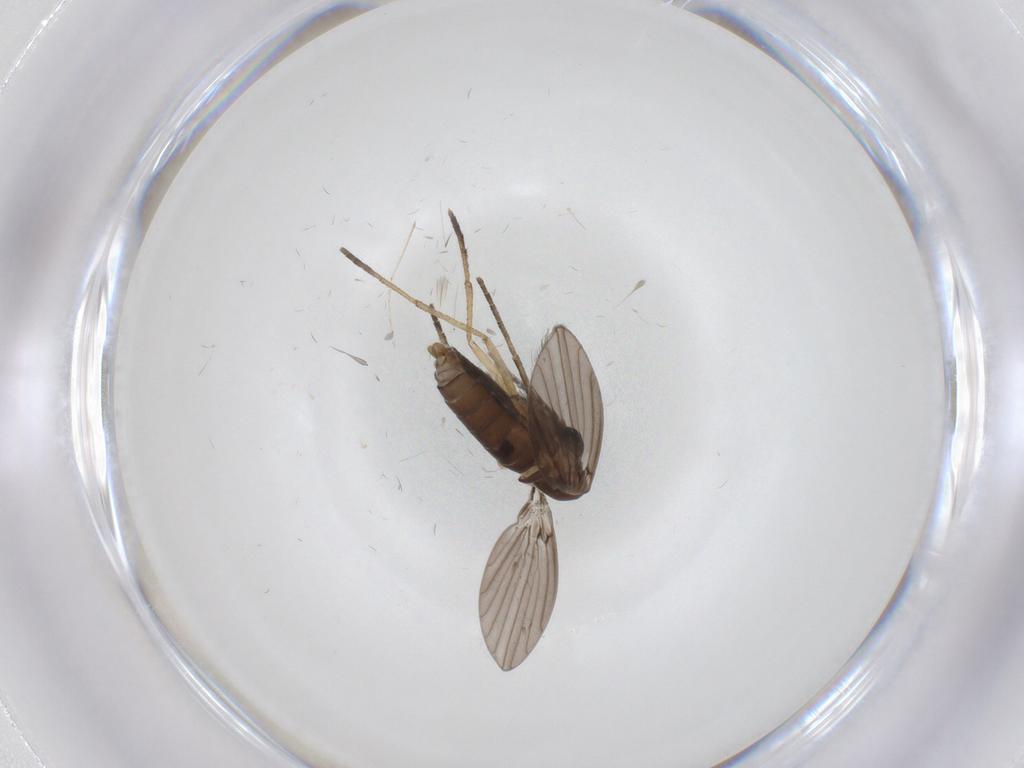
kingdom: Animalia
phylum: Arthropoda
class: Insecta
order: Diptera
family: Psychodidae
